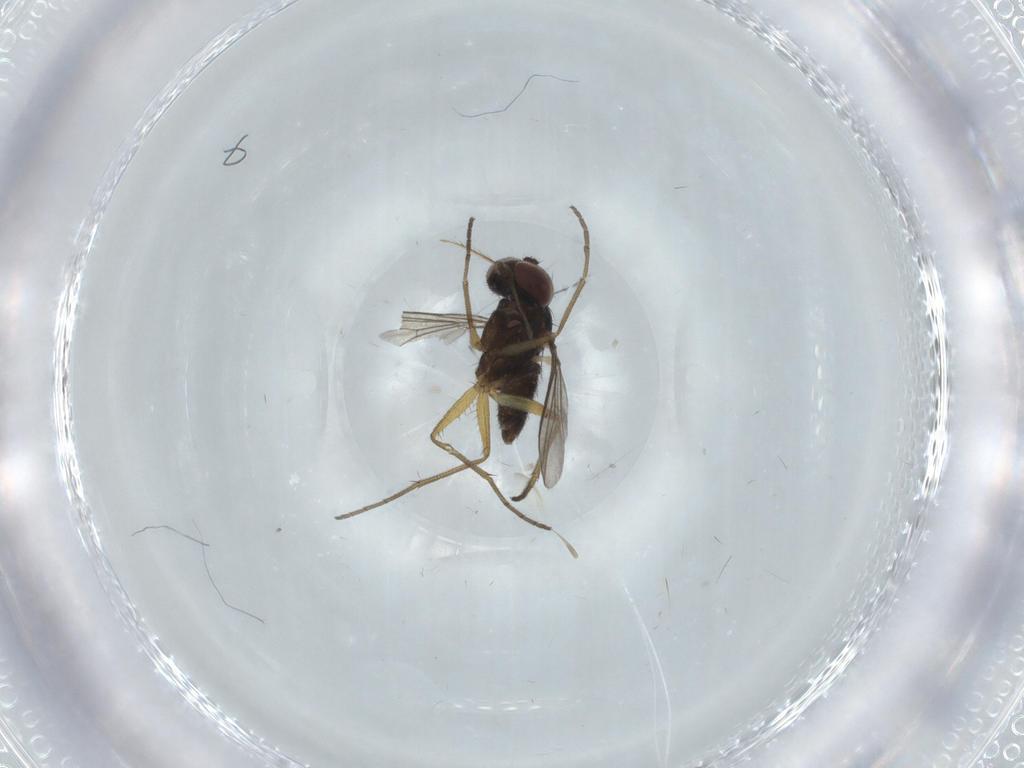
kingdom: Animalia
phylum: Arthropoda
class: Insecta
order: Diptera
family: Dolichopodidae
